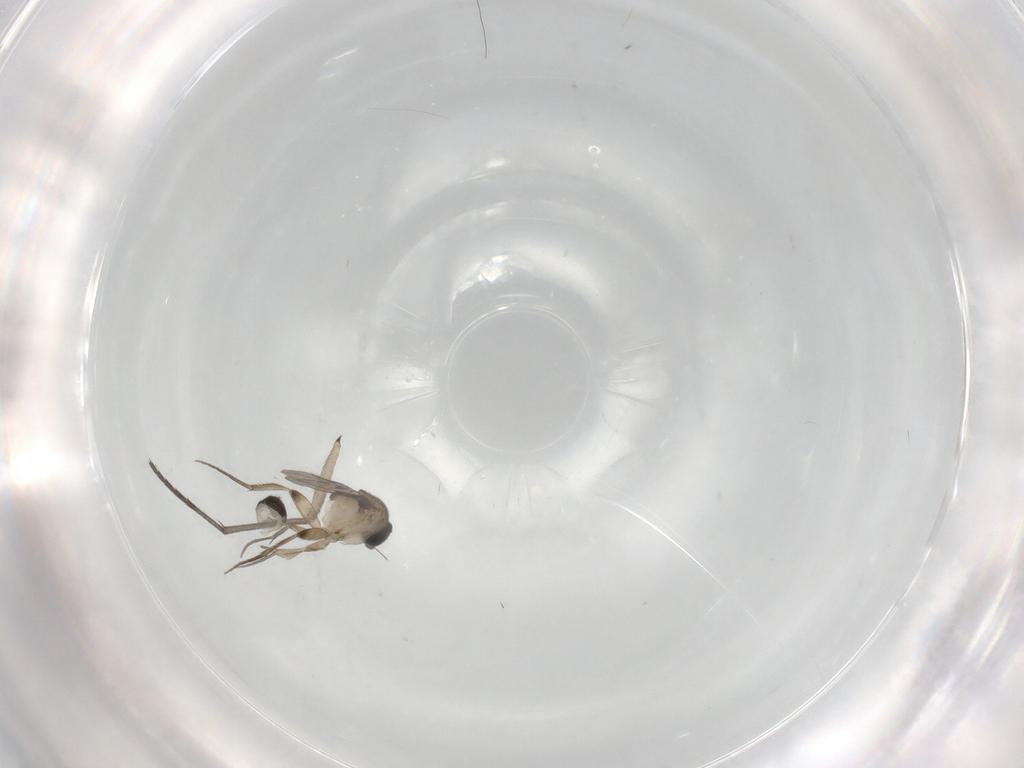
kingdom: Animalia
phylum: Arthropoda
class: Insecta
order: Diptera
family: Phoridae
